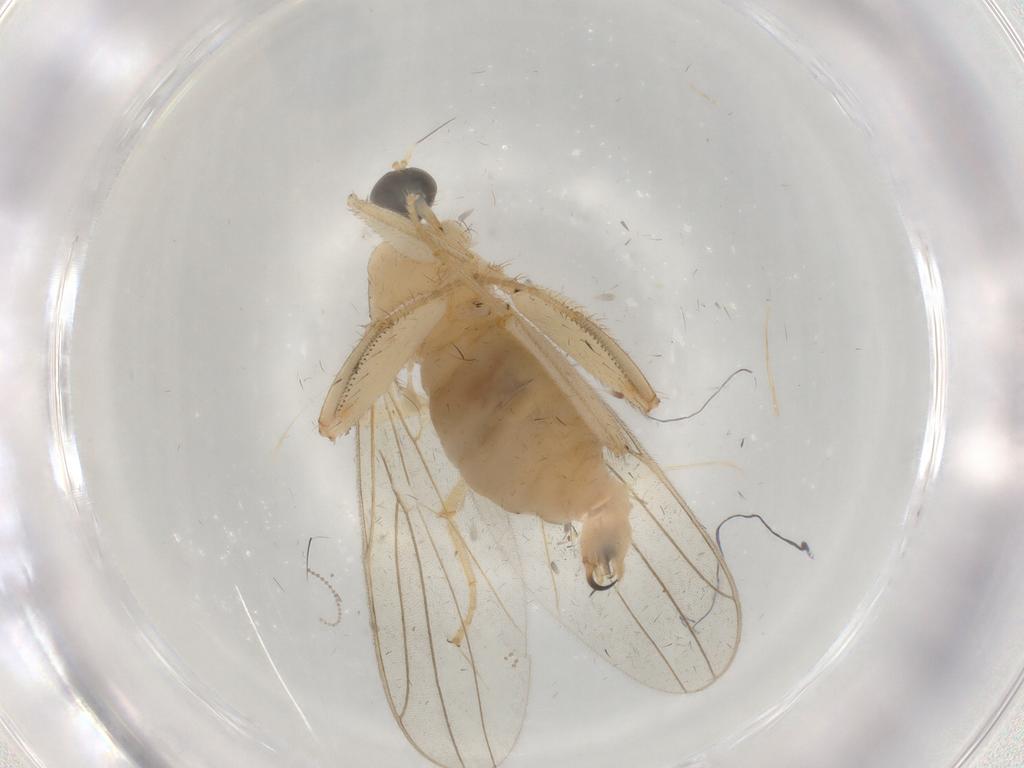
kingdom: Animalia
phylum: Arthropoda
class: Insecta
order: Diptera
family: Hybotidae
